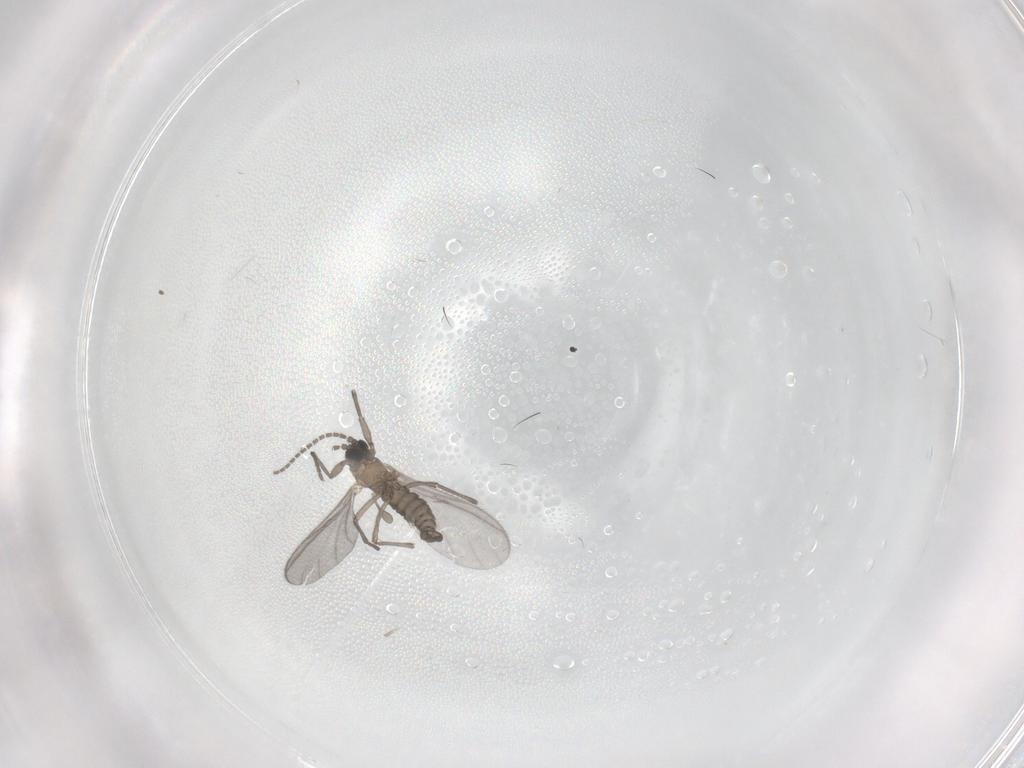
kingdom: Animalia
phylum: Arthropoda
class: Insecta
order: Diptera
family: Sciaridae
